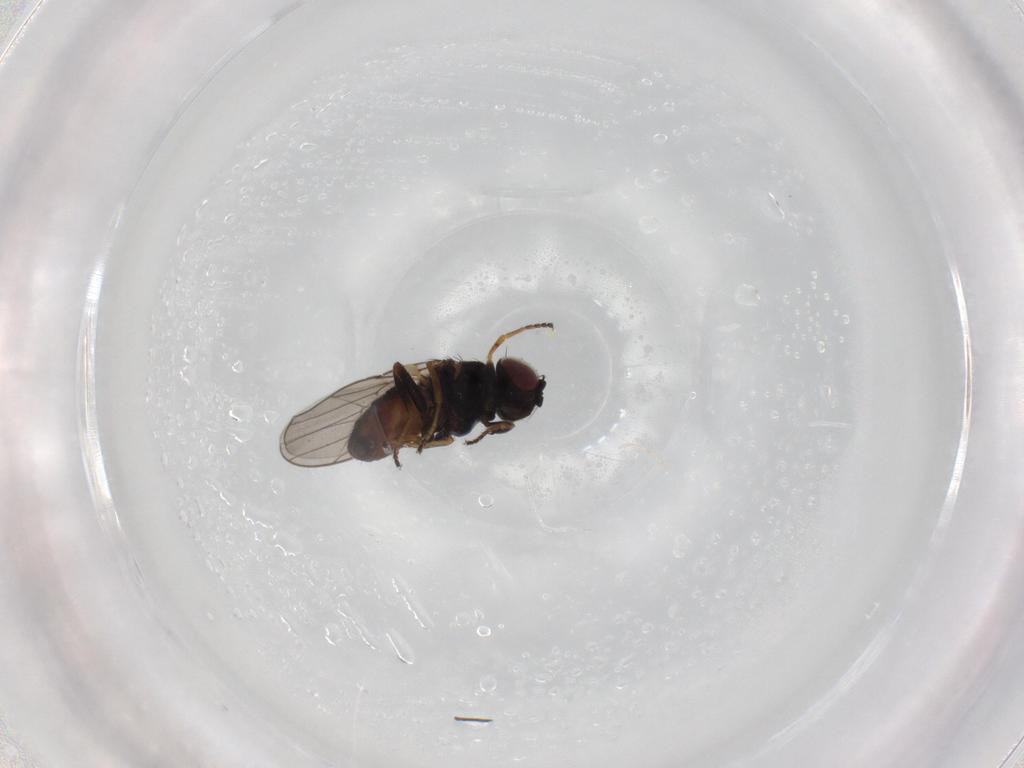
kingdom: Animalia
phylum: Arthropoda
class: Insecta
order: Diptera
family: Chloropidae
